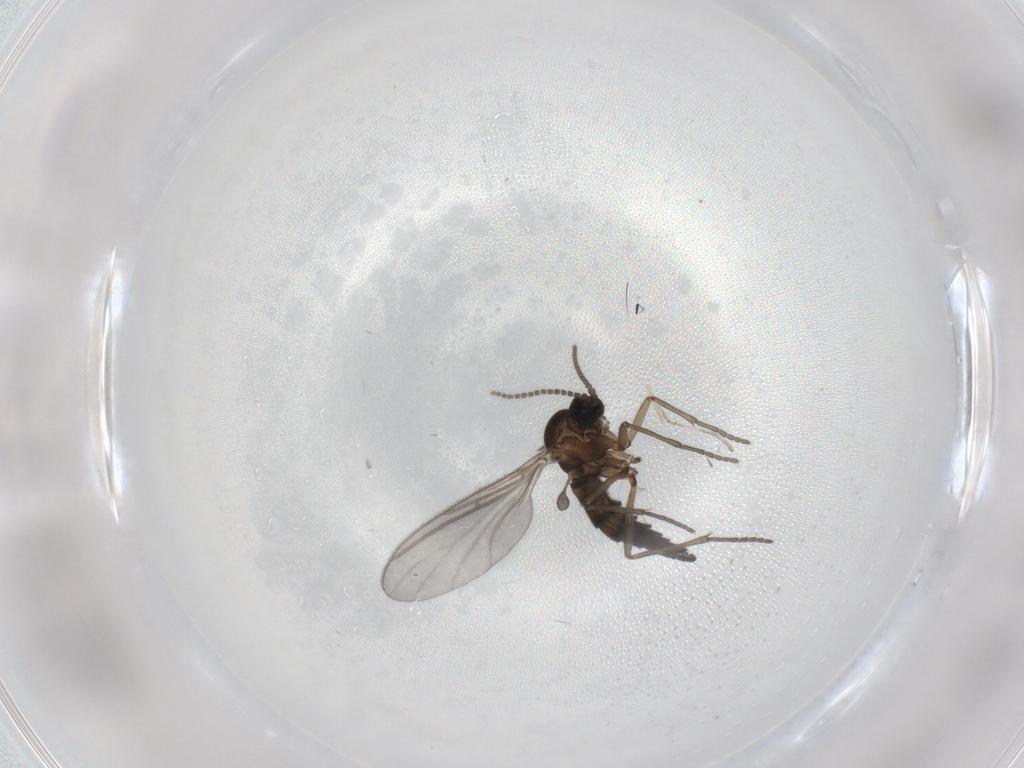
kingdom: Animalia
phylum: Arthropoda
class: Insecta
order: Diptera
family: Sciaridae
